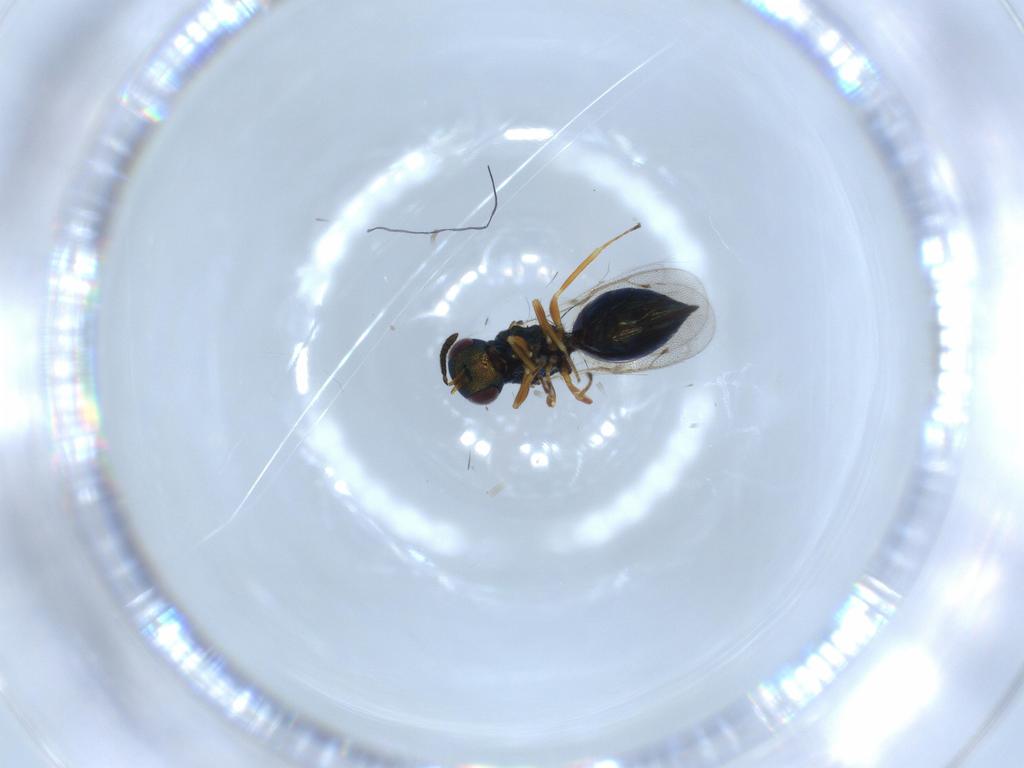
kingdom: Animalia
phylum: Arthropoda
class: Insecta
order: Hymenoptera
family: Pteromalidae
